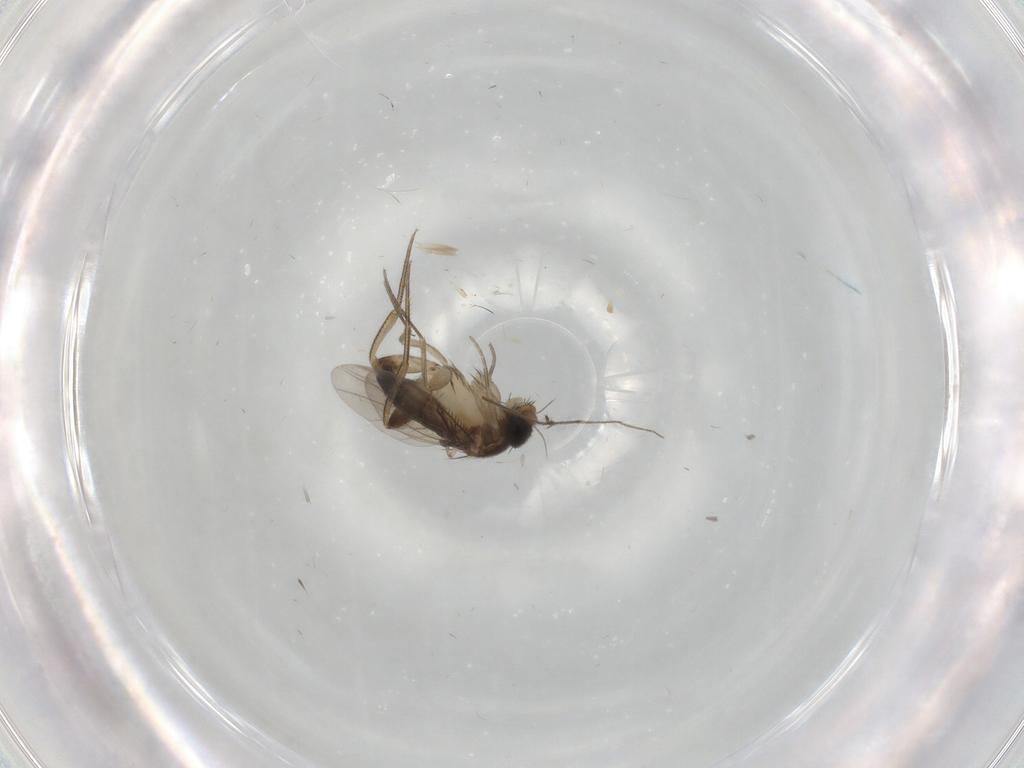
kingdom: Animalia
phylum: Arthropoda
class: Insecta
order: Diptera
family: Phoridae
